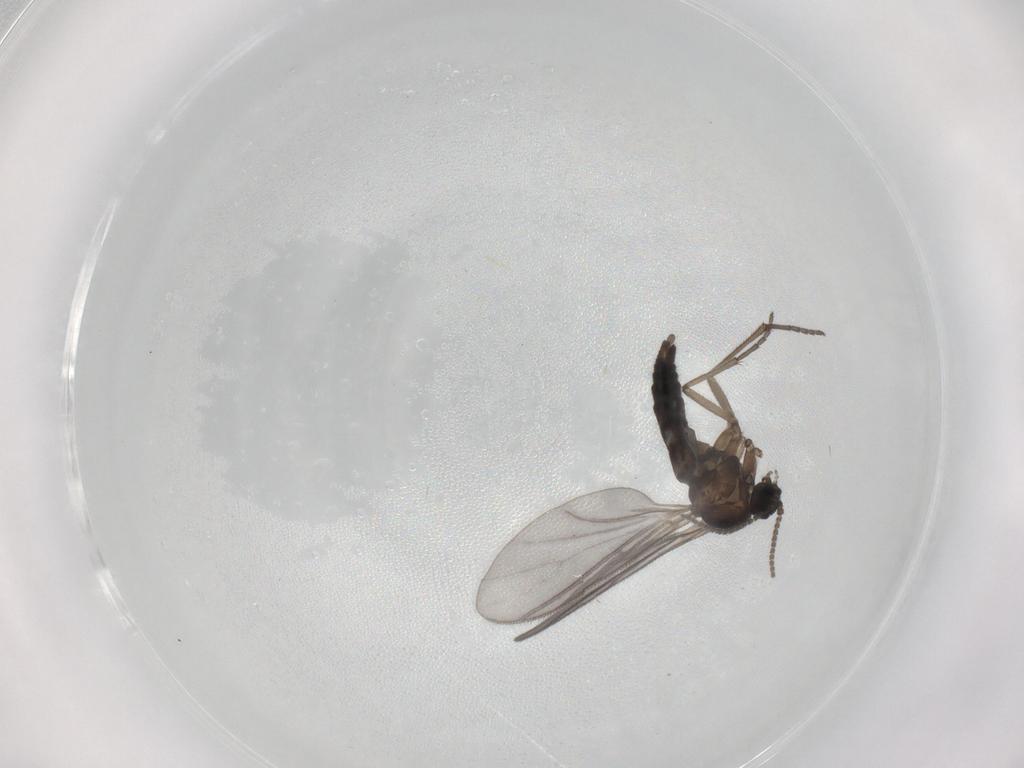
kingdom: Animalia
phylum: Arthropoda
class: Insecta
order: Diptera
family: Sciaridae
